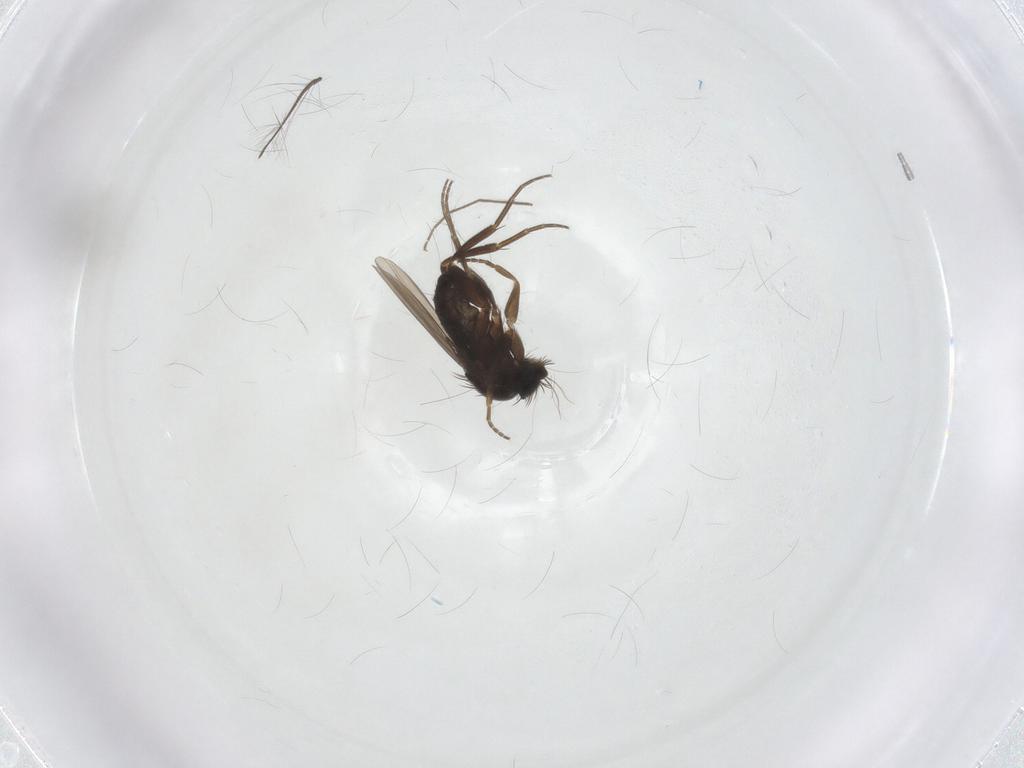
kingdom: Animalia
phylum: Arthropoda
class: Insecta
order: Diptera
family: Phoridae
